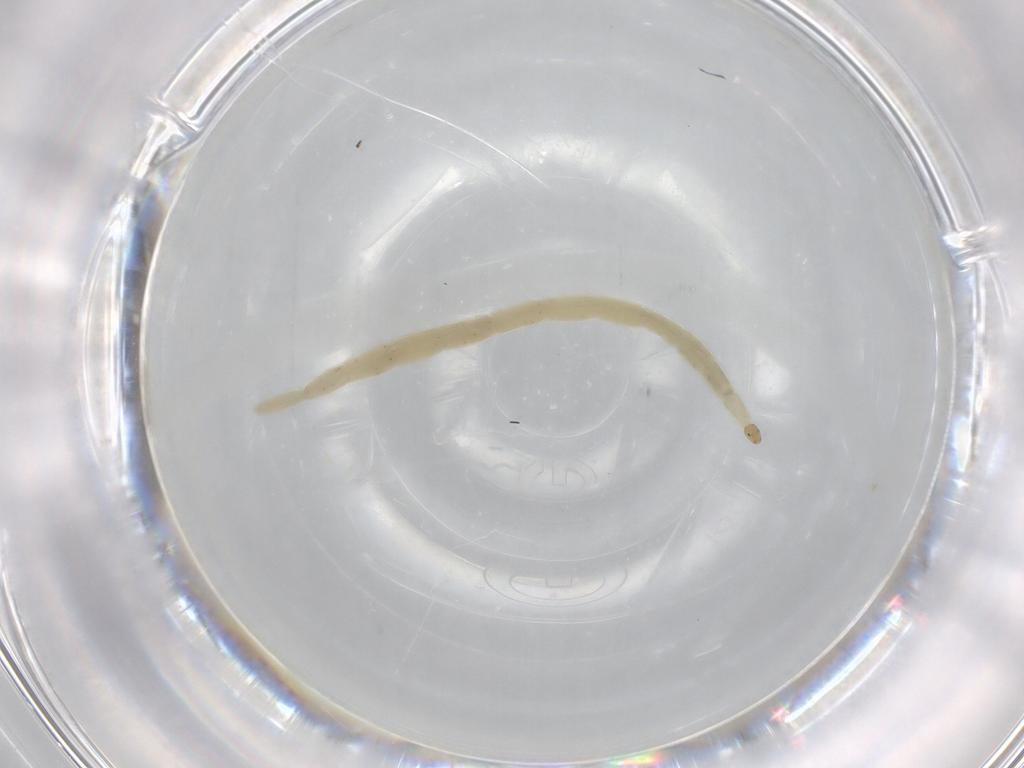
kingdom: Animalia
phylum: Arthropoda
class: Insecta
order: Diptera
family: Ceratopogonidae
